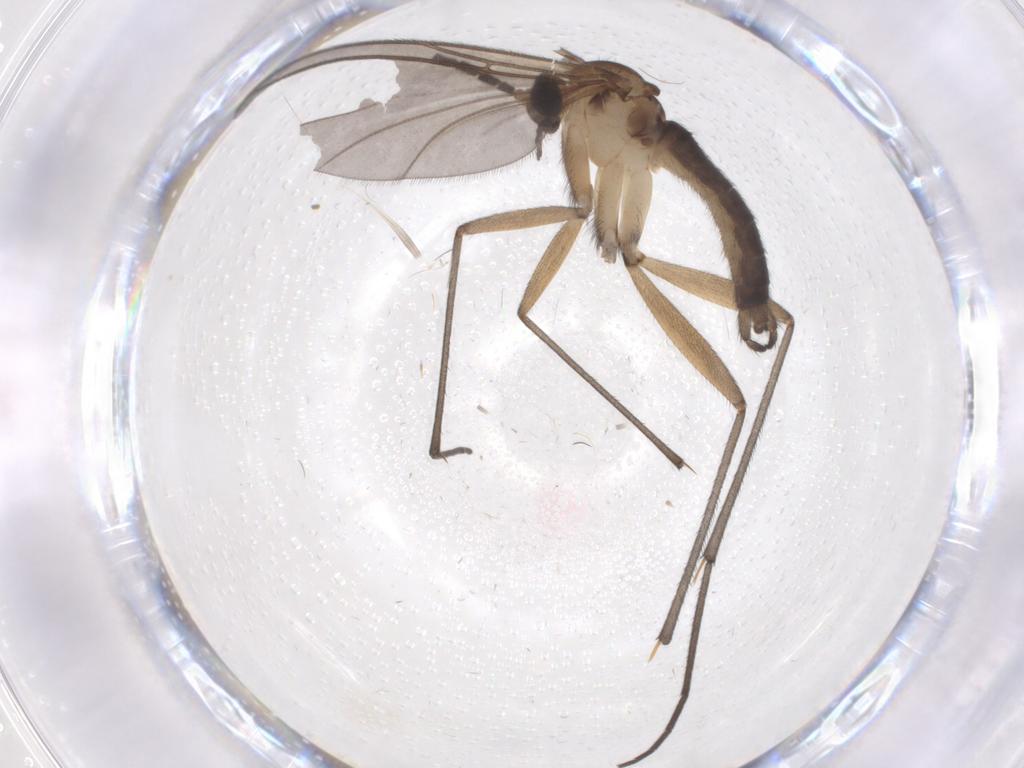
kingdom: Animalia
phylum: Arthropoda
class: Insecta
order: Diptera
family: Sciaridae
